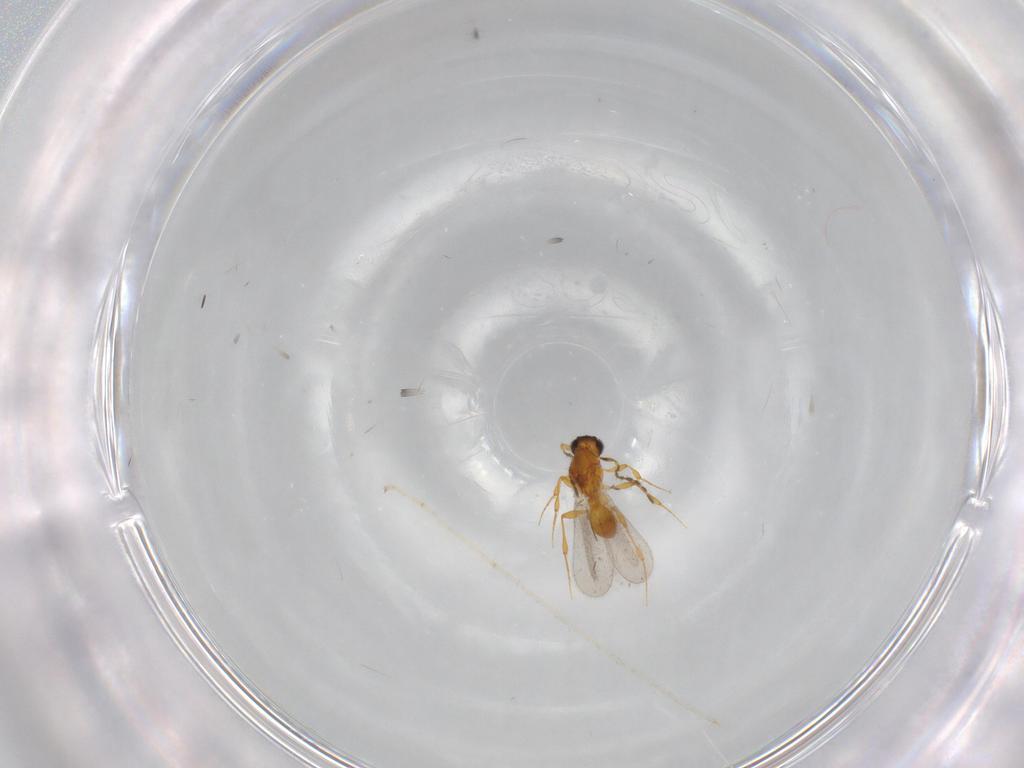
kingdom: Animalia
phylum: Arthropoda
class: Insecta
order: Hymenoptera
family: Platygastridae
